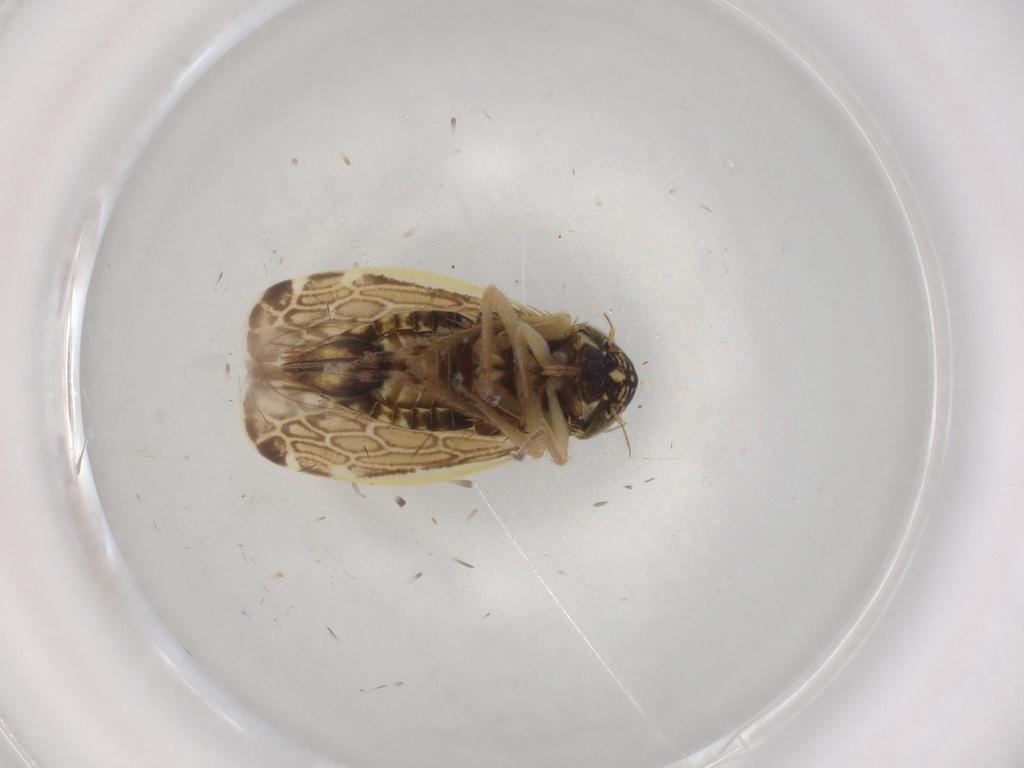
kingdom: Animalia
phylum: Arthropoda
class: Insecta
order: Hemiptera
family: Cicadellidae
